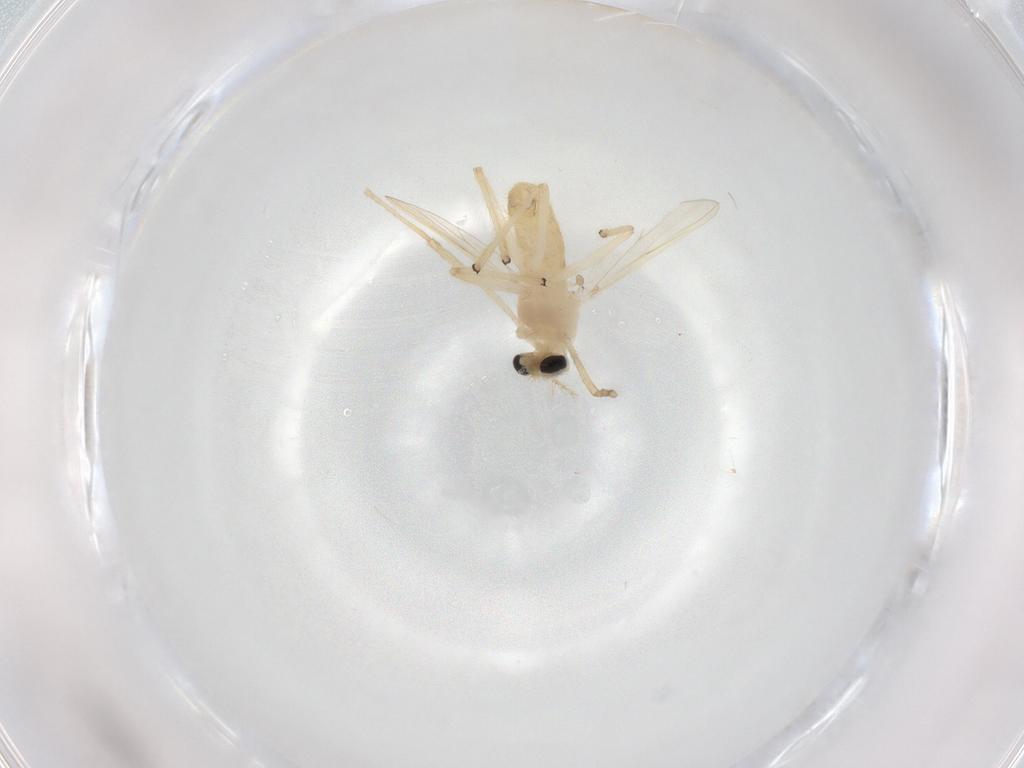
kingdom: Animalia
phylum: Arthropoda
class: Insecta
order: Diptera
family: Chironomidae
